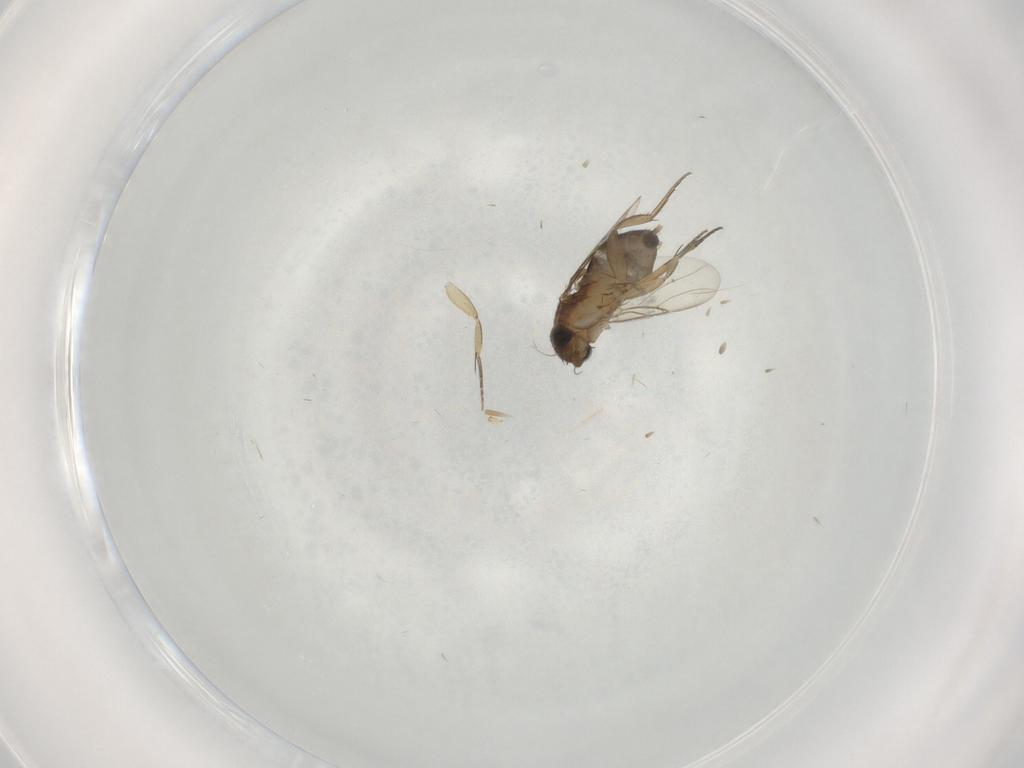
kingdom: Animalia
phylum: Arthropoda
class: Insecta
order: Diptera
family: Phoridae
